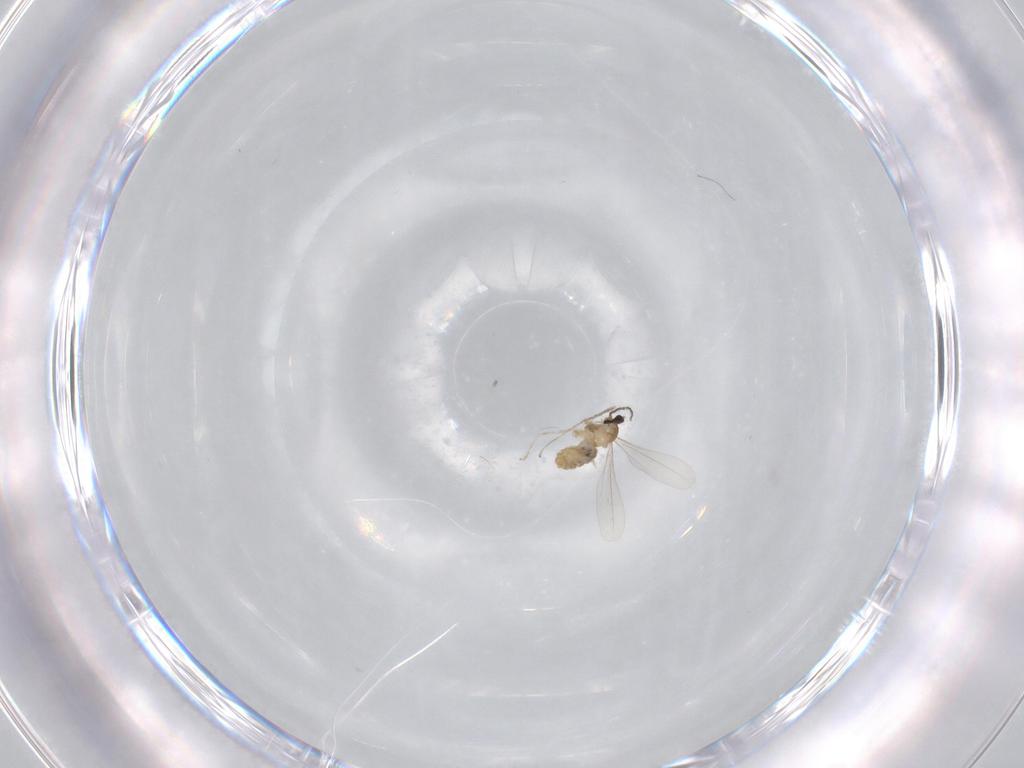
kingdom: Animalia
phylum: Arthropoda
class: Insecta
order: Diptera
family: Cecidomyiidae
